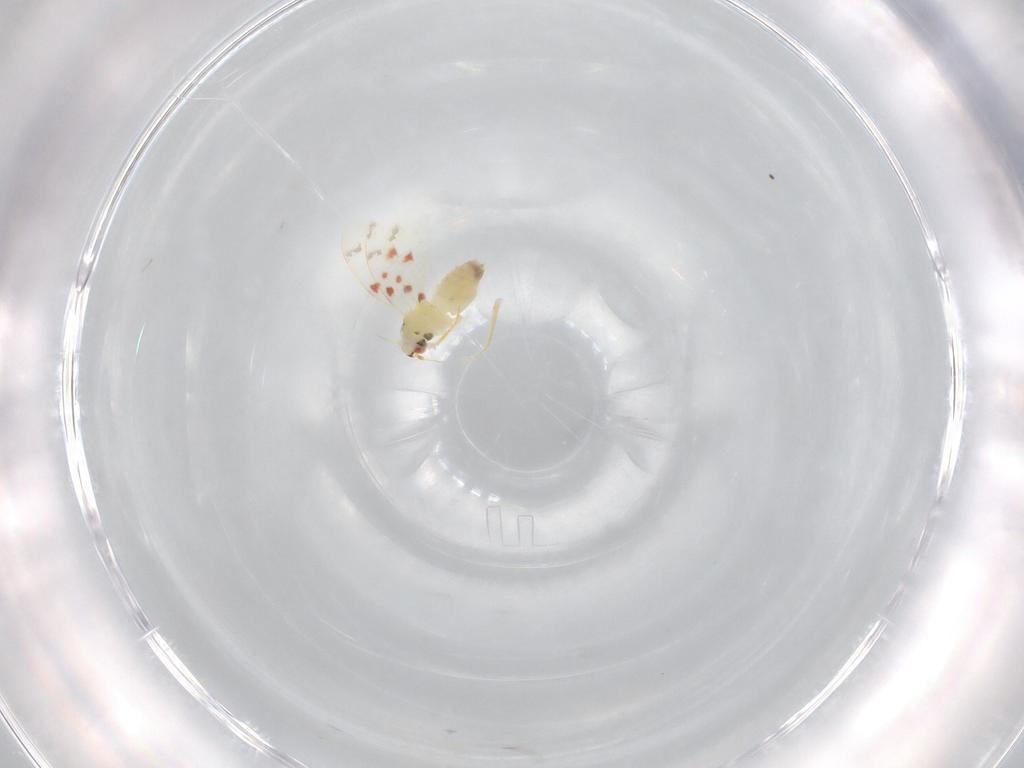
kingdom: Animalia
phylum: Arthropoda
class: Insecta
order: Hemiptera
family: Aleyrodidae
